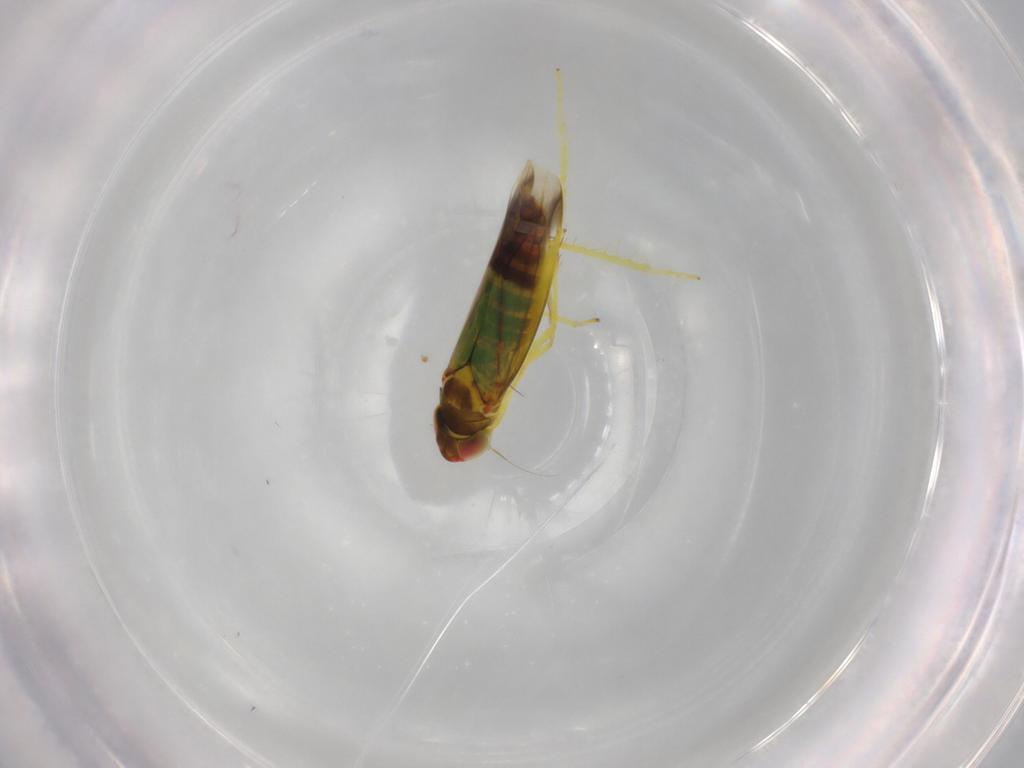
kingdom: Animalia
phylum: Arthropoda
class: Insecta
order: Hemiptera
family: Cicadellidae
